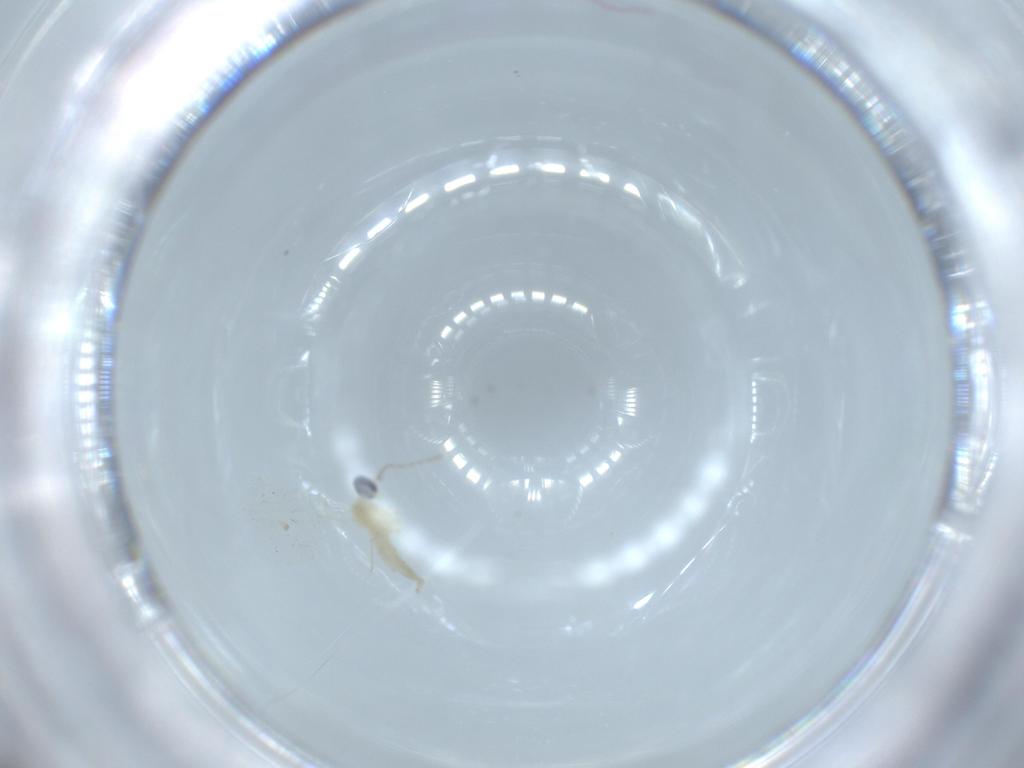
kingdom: Animalia
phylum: Arthropoda
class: Insecta
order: Diptera
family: Cecidomyiidae
